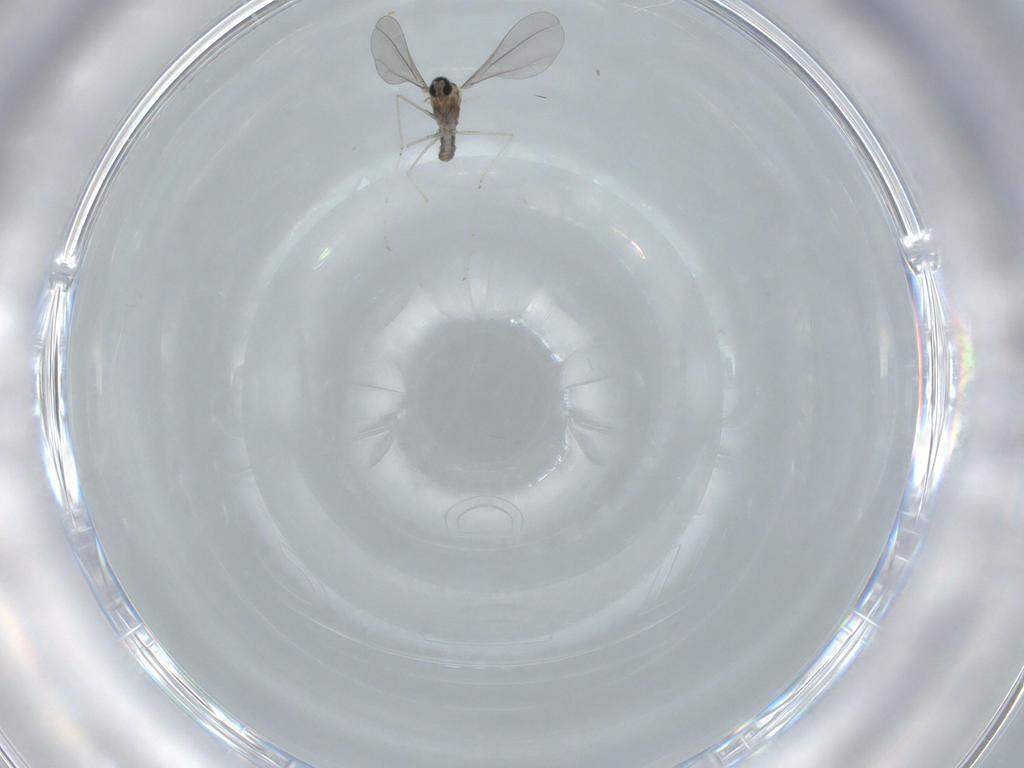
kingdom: Animalia
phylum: Arthropoda
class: Insecta
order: Diptera
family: Cecidomyiidae
